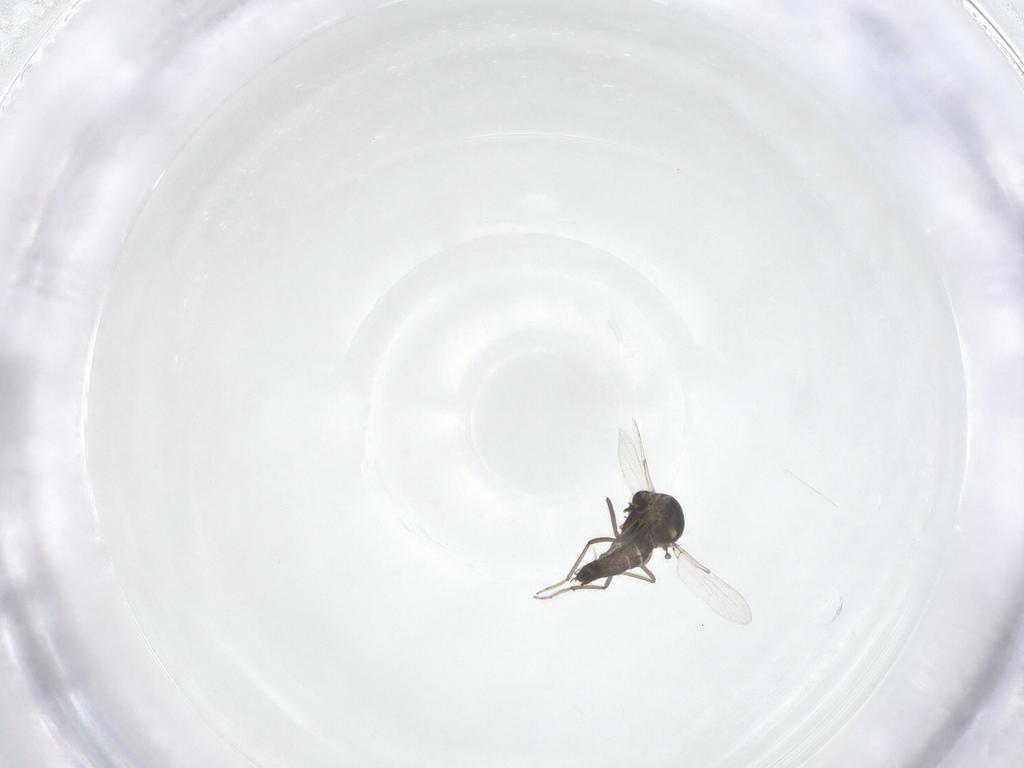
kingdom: Animalia
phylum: Arthropoda
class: Insecta
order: Diptera
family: Ceratopogonidae
